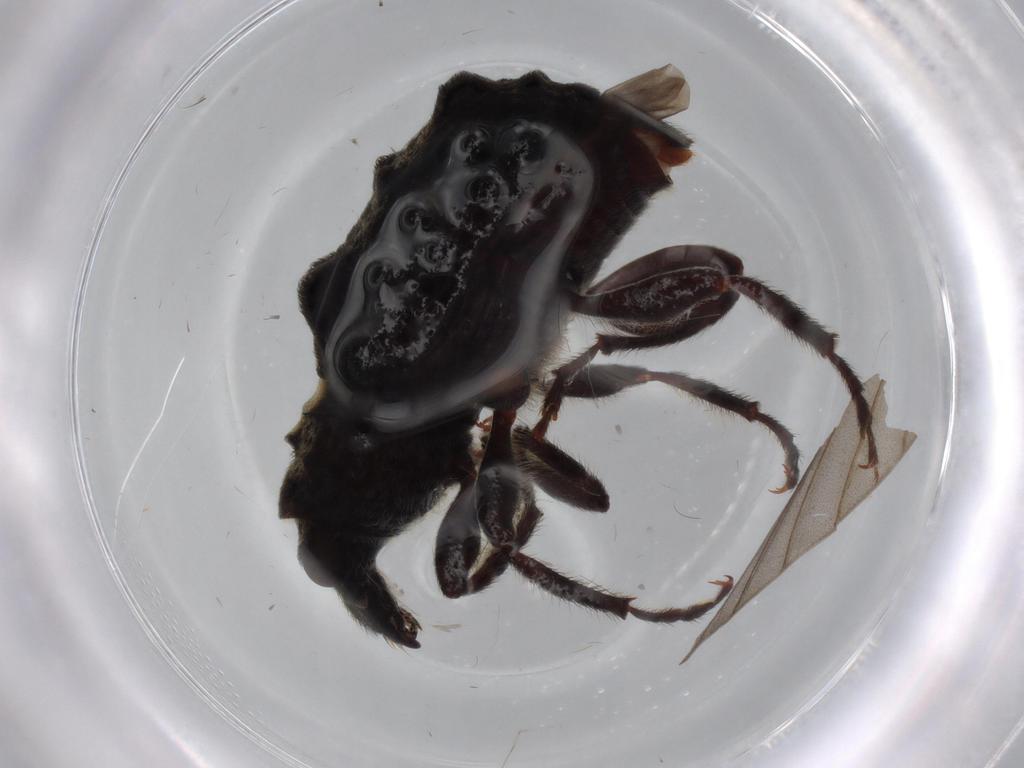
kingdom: Animalia
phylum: Arthropoda
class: Insecta
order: Coleoptera
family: Anthribidae
